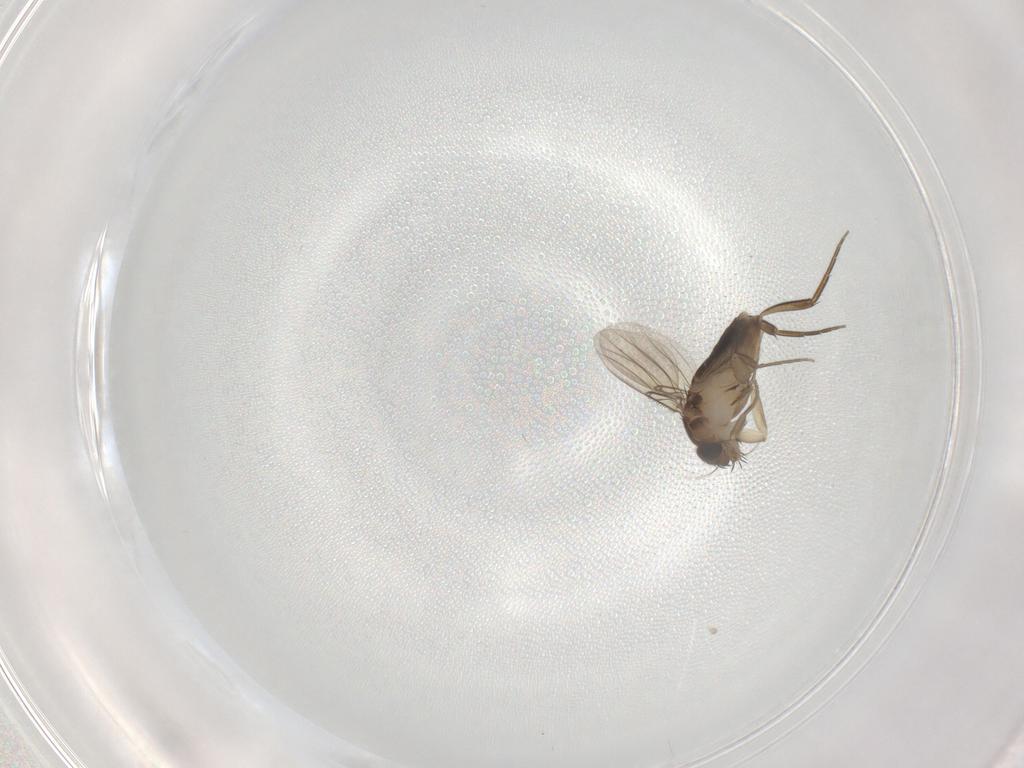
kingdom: Animalia
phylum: Arthropoda
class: Insecta
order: Diptera
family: Phoridae
